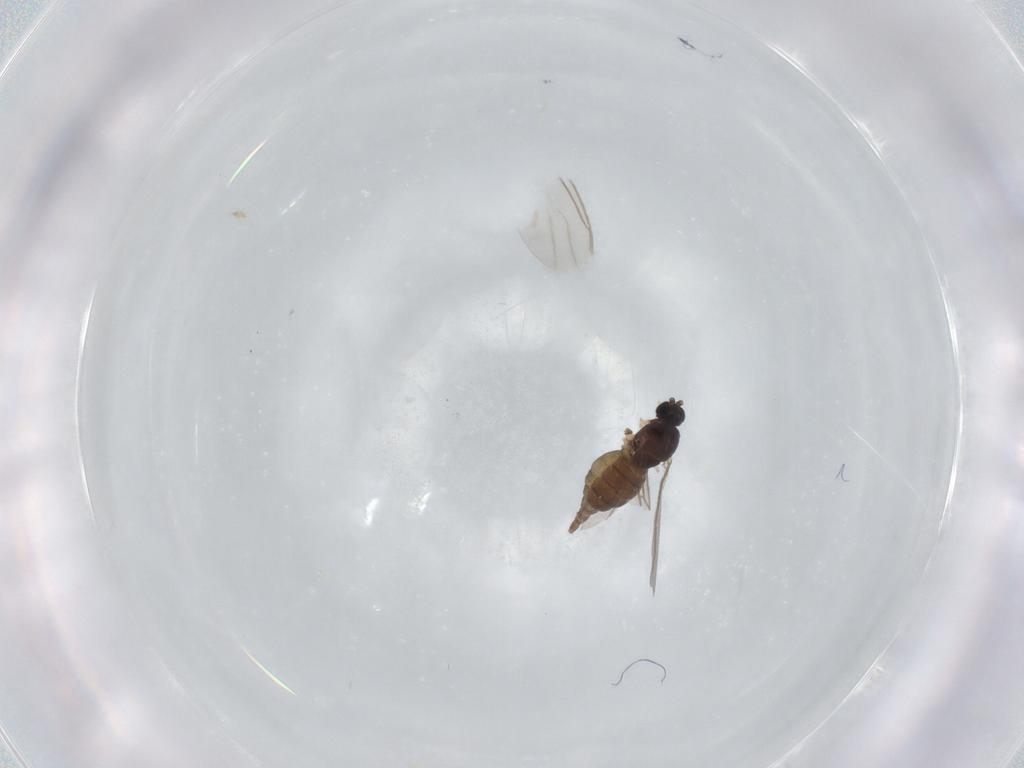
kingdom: Animalia
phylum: Arthropoda
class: Insecta
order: Diptera
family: Sciaridae
